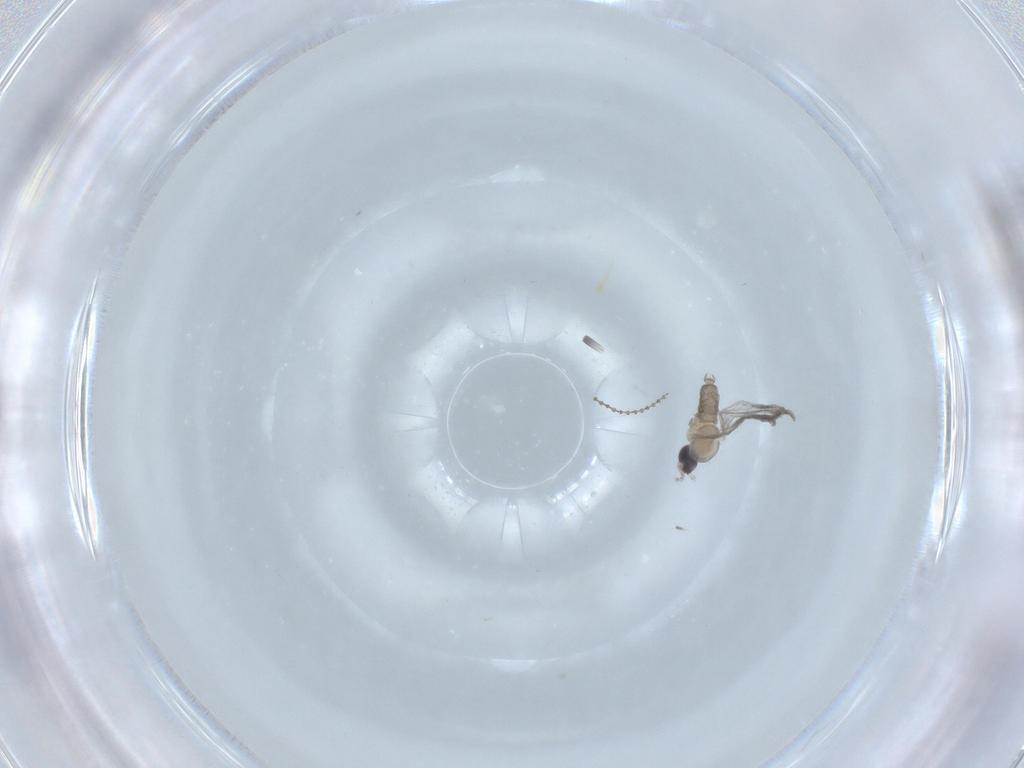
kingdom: Animalia
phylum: Arthropoda
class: Insecta
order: Diptera
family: Cecidomyiidae
